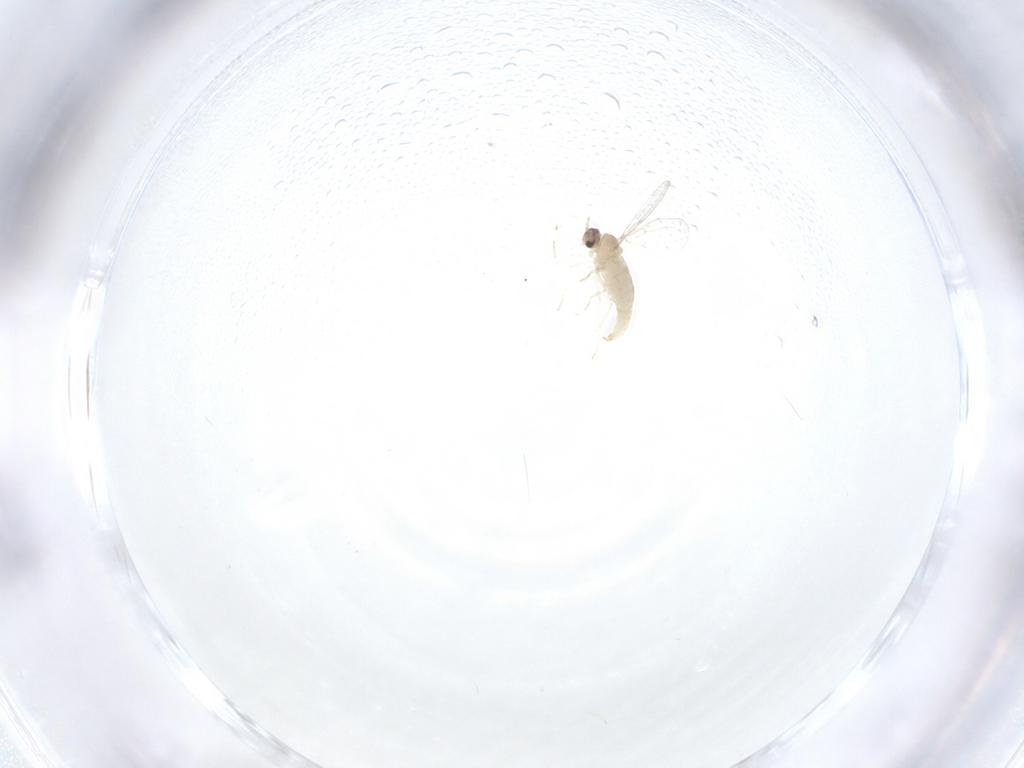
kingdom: Animalia
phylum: Arthropoda
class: Insecta
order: Diptera
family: Cecidomyiidae
